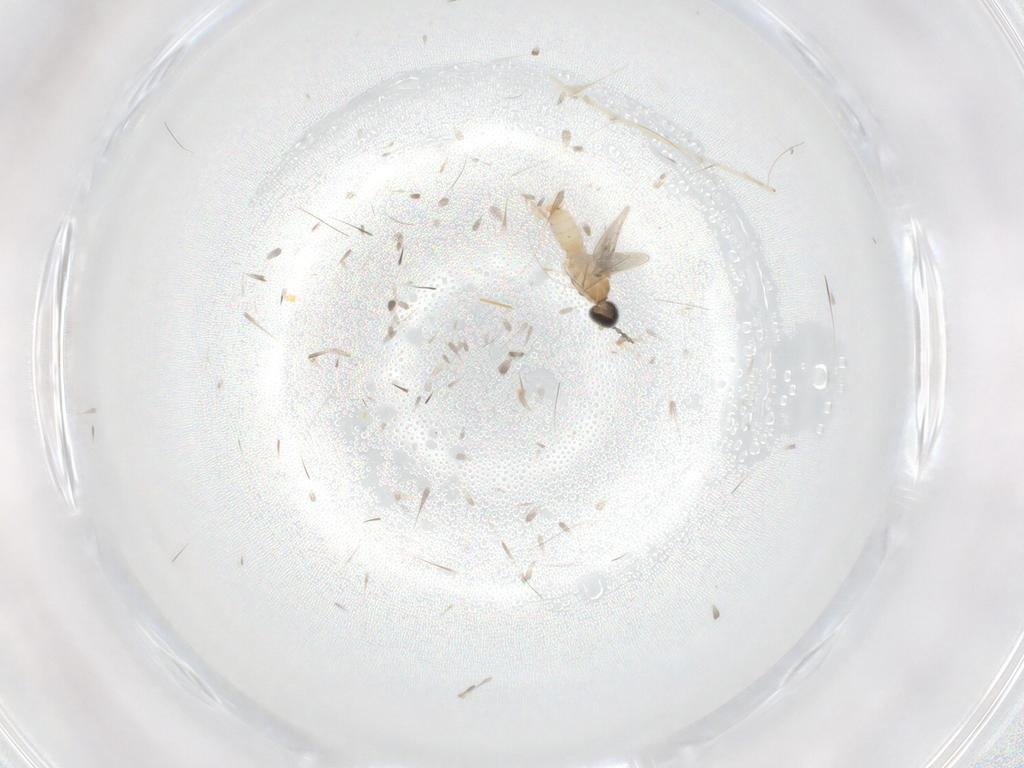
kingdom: Animalia
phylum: Arthropoda
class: Insecta
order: Diptera
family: Cecidomyiidae
